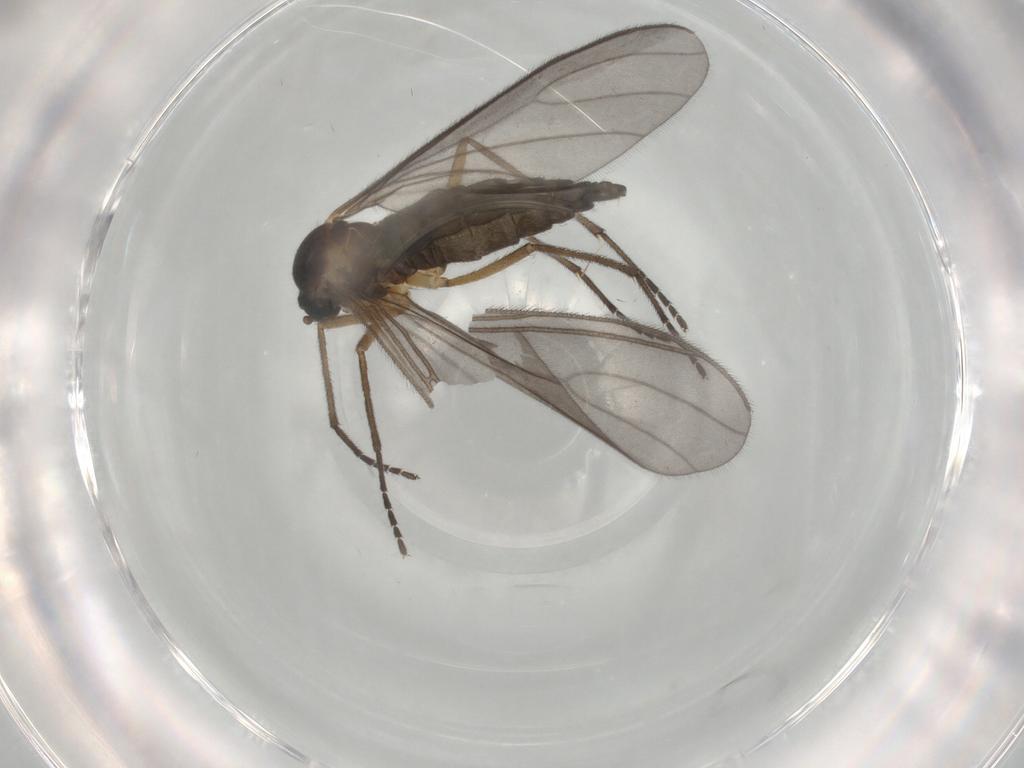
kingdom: Animalia
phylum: Arthropoda
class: Insecta
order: Diptera
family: Sciaridae
